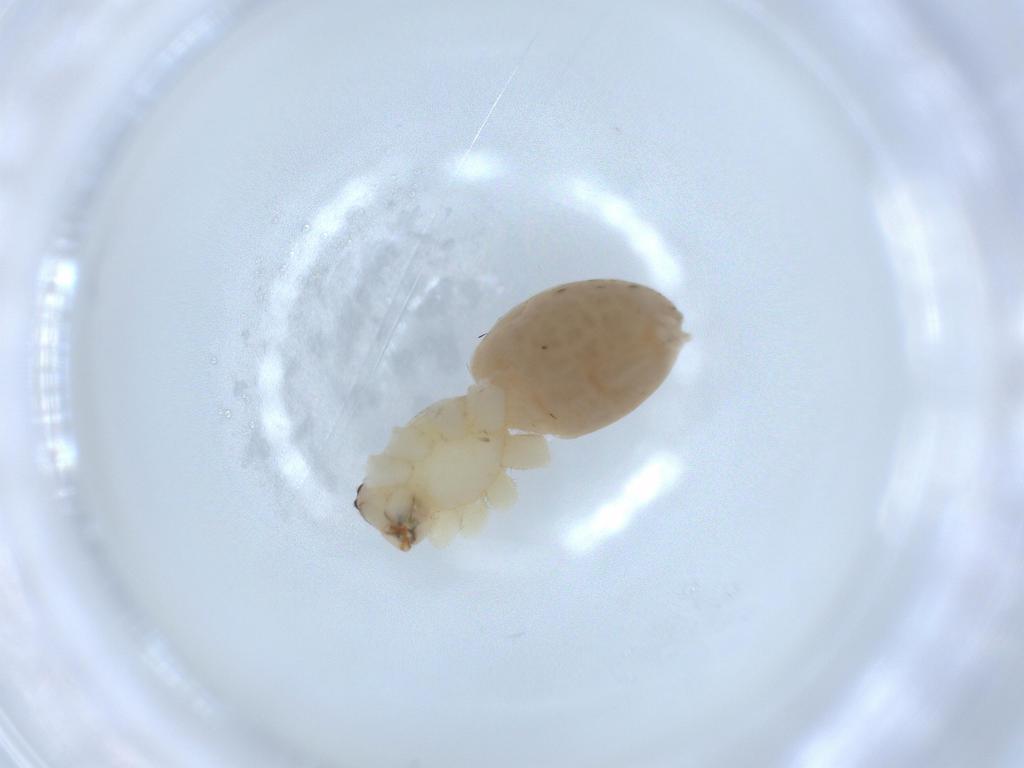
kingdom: Animalia
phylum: Arthropoda
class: Arachnida
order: Araneae
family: Anyphaenidae
